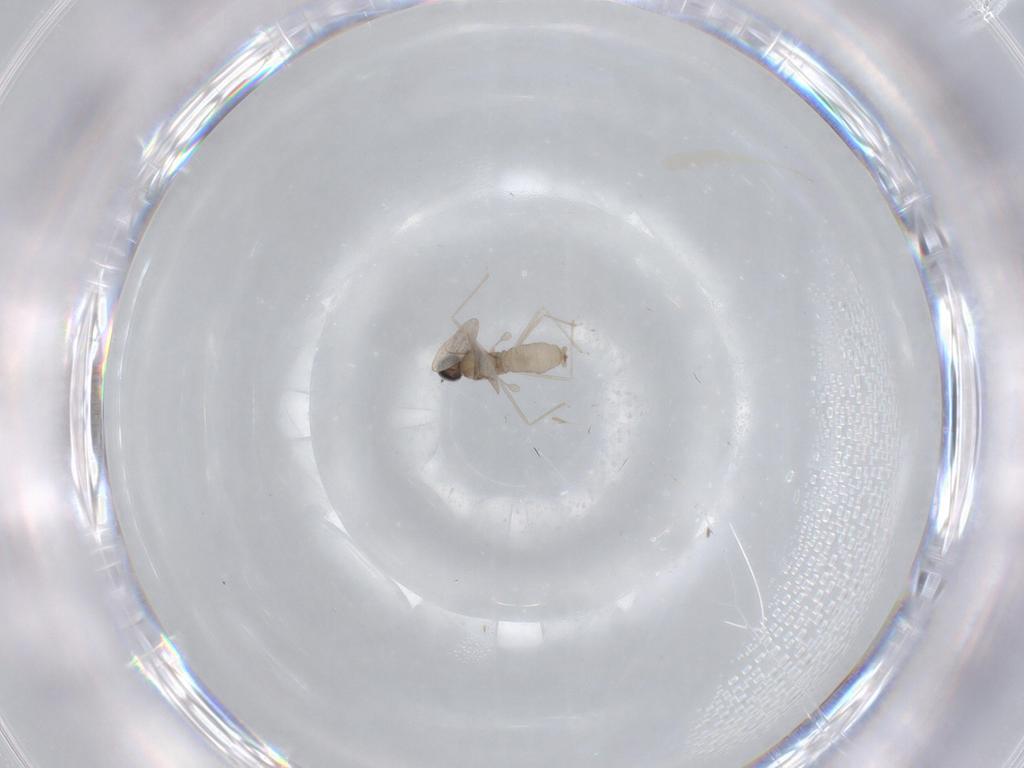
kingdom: Animalia
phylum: Arthropoda
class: Insecta
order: Diptera
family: Cecidomyiidae
